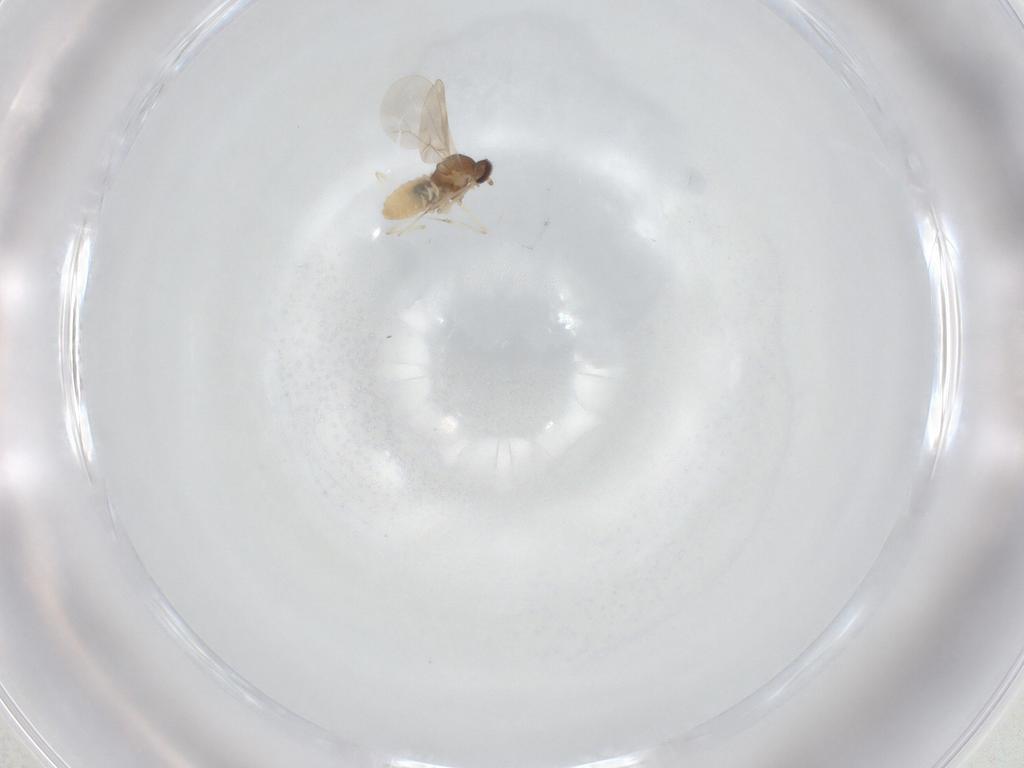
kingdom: Animalia
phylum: Arthropoda
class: Insecta
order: Diptera
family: Cecidomyiidae
